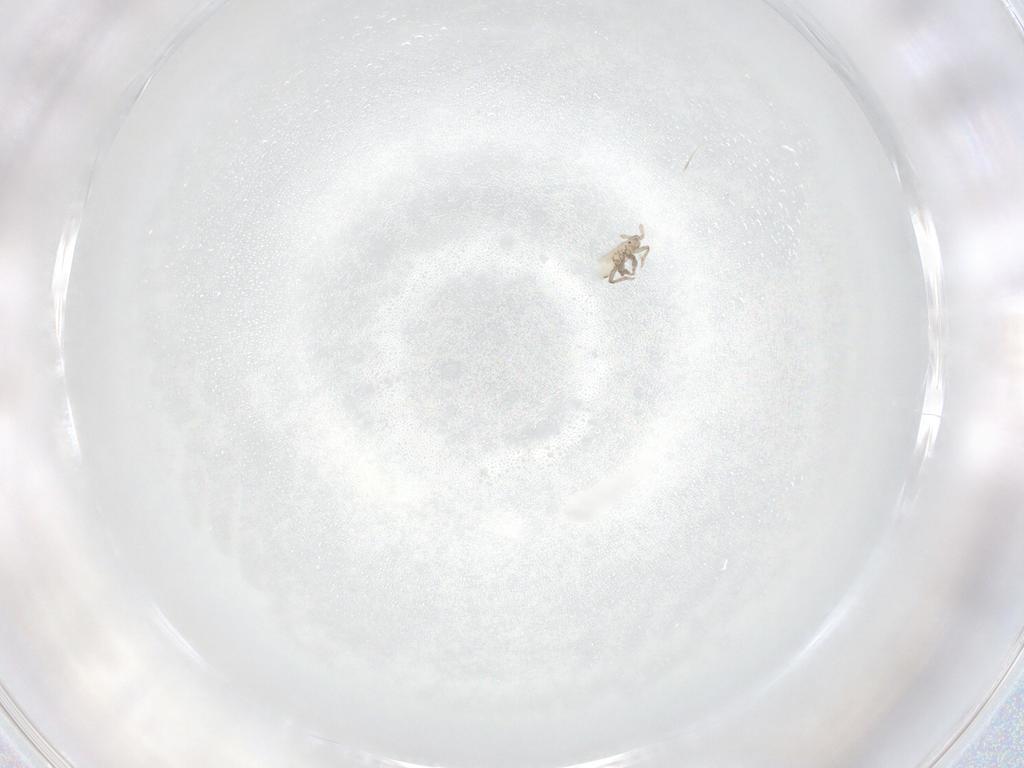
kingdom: Animalia
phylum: Arthropoda
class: Insecta
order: Hemiptera
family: Aphididae
